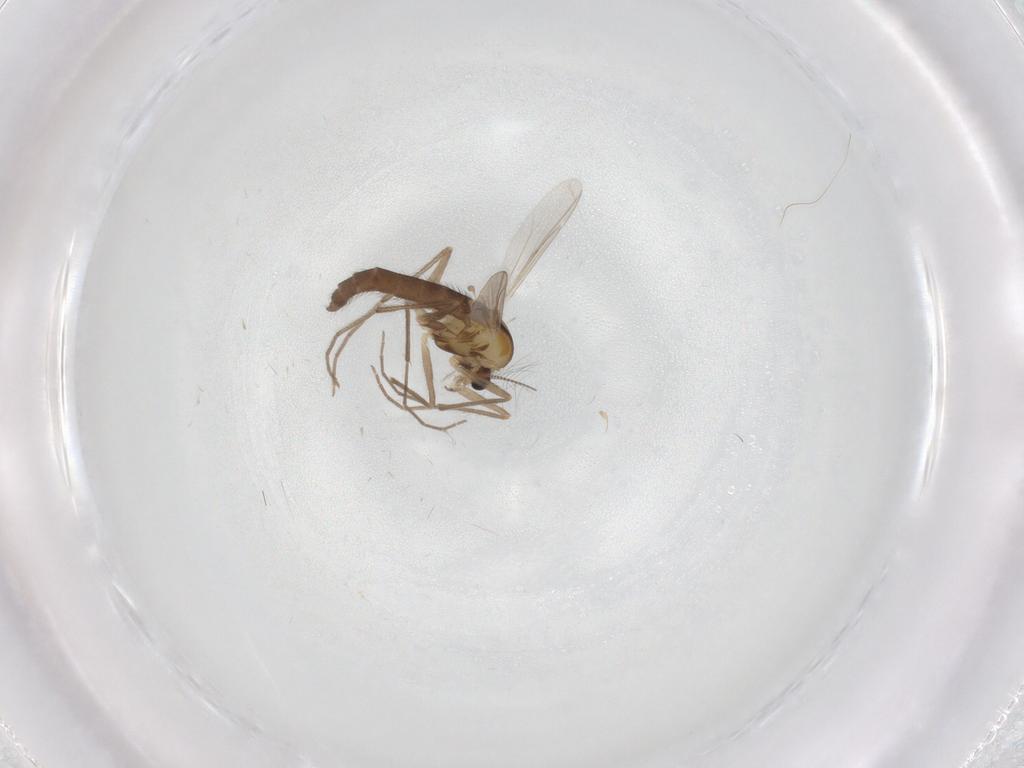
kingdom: Animalia
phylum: Arthropoda
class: Insecta
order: Diptera
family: Chironomidae
